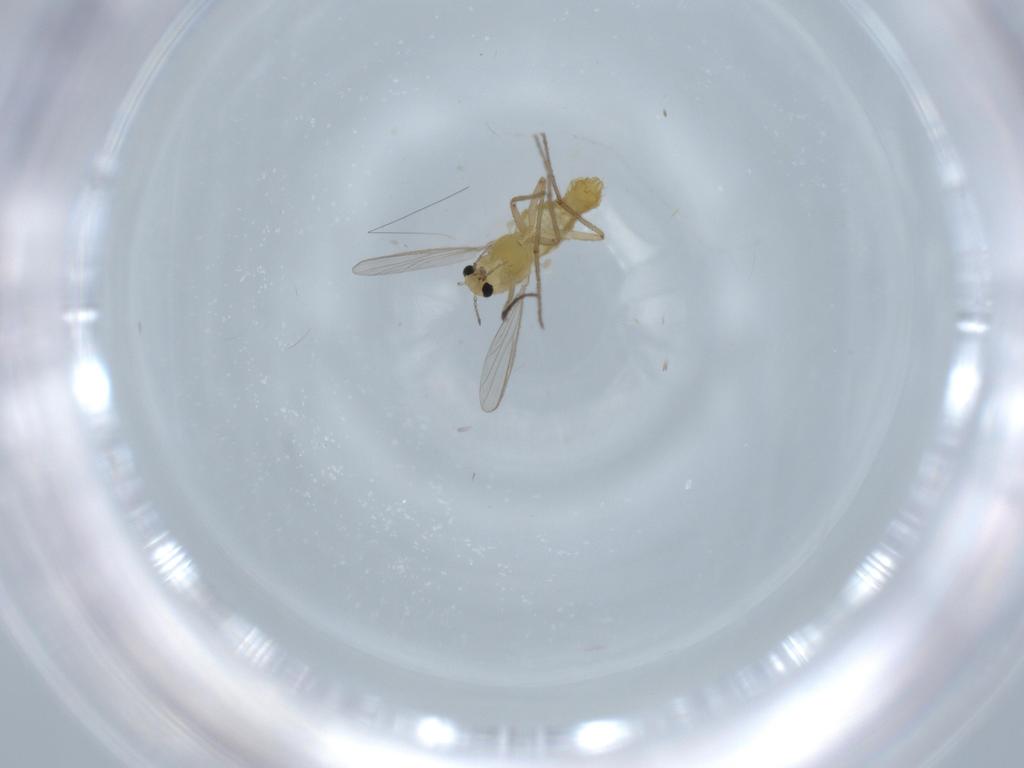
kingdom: Animalia
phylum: Arthropoda
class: Insecta
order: Diptera
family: Chironomidae
